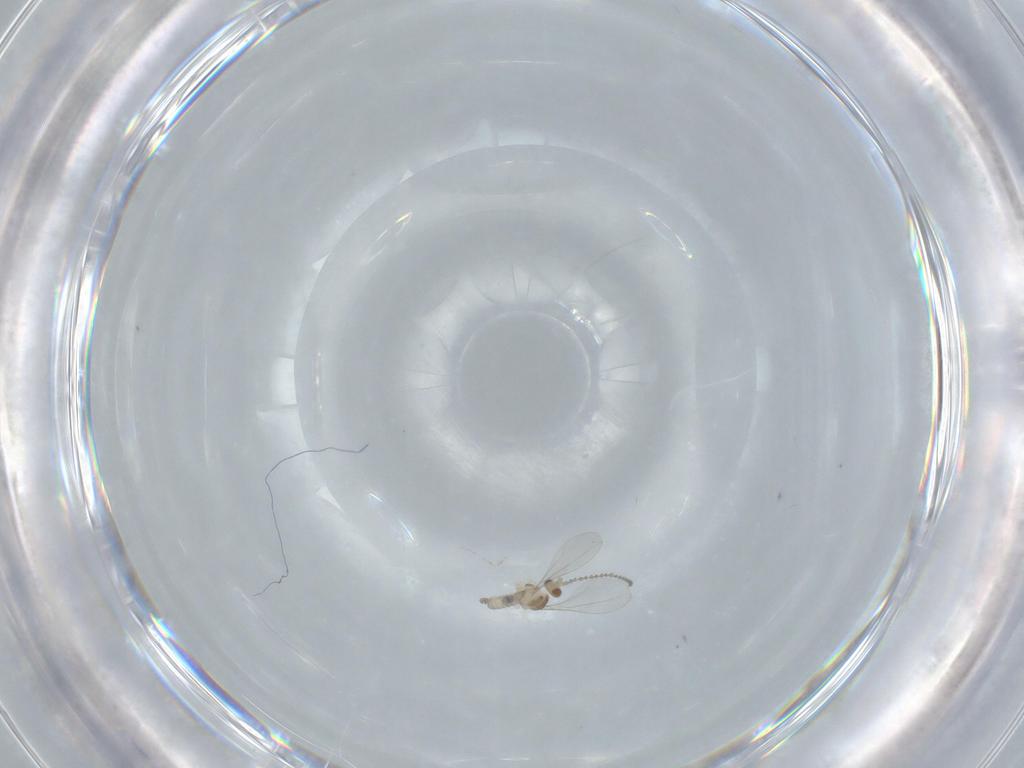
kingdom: Animalia
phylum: Arthropoda
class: Insecta
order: Diptera
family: Cecidomyiidae
